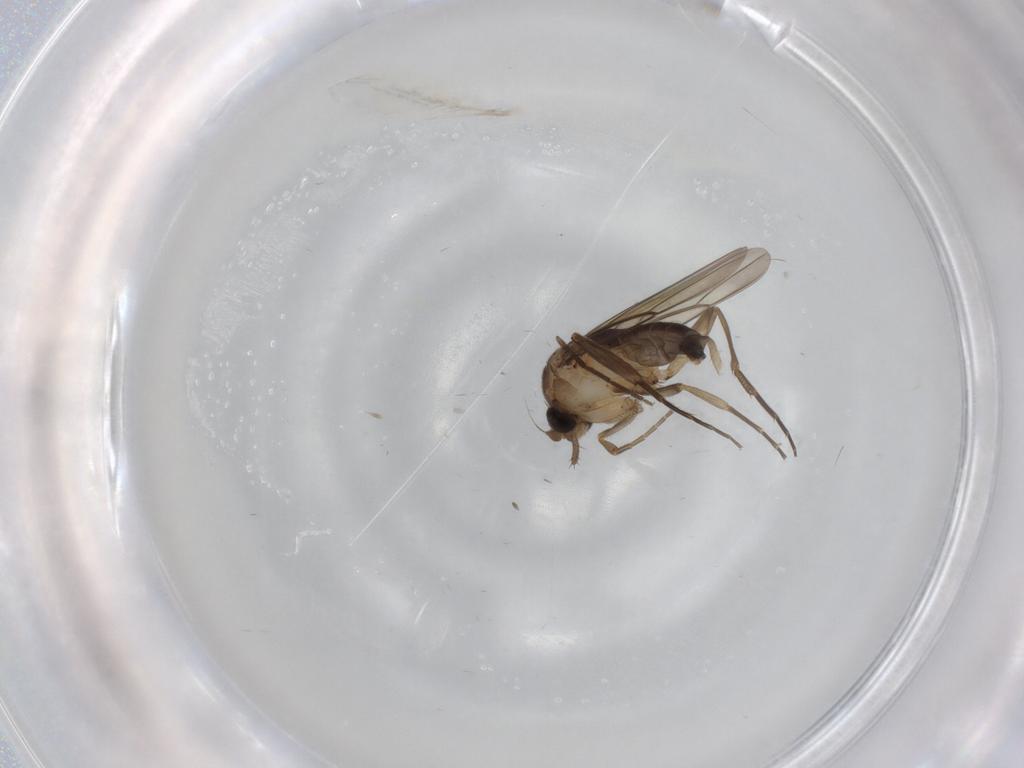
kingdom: Animalia
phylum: Arthropoda
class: Insecta
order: Diptera
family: Phoridae
